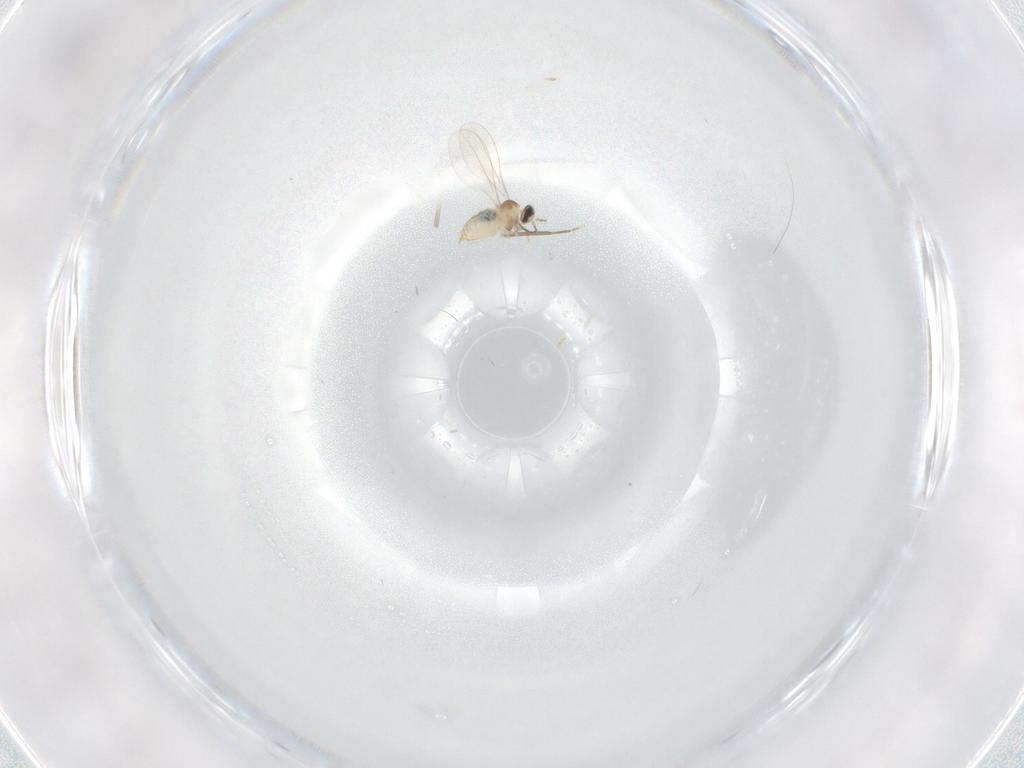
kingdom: Animalia
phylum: Arthropoda
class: Insecta
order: Diptera
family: Cecidomyiidae
